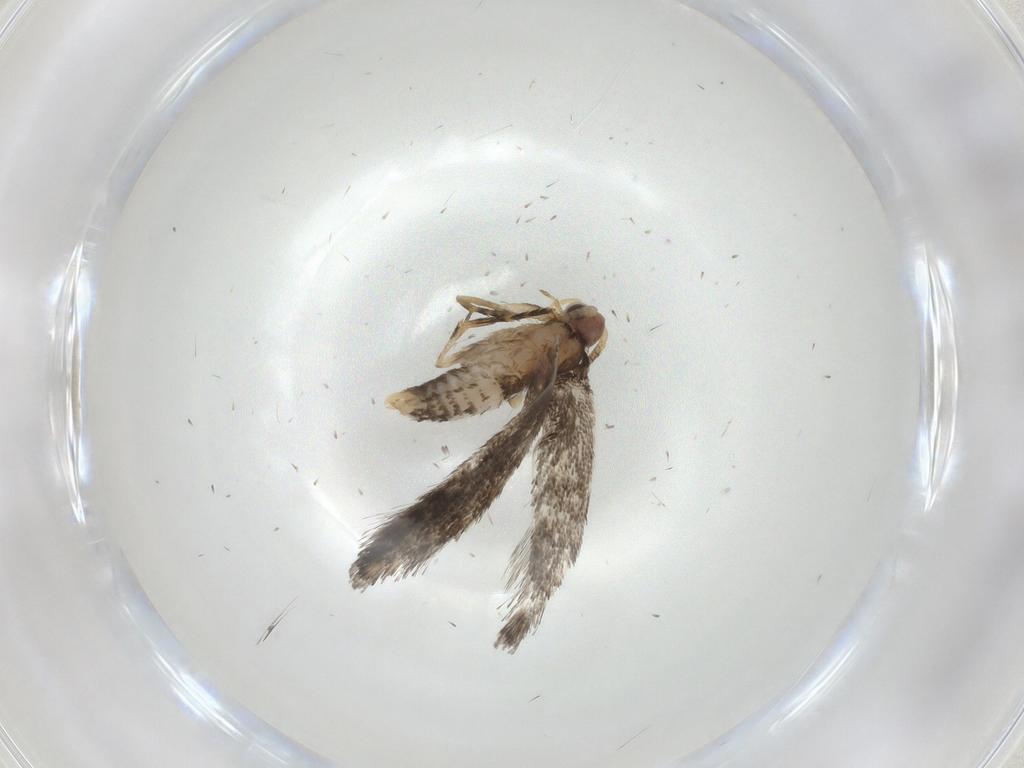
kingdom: Animalia
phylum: Arthropoda
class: Insecta
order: Lepidoptera
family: Tineidae
